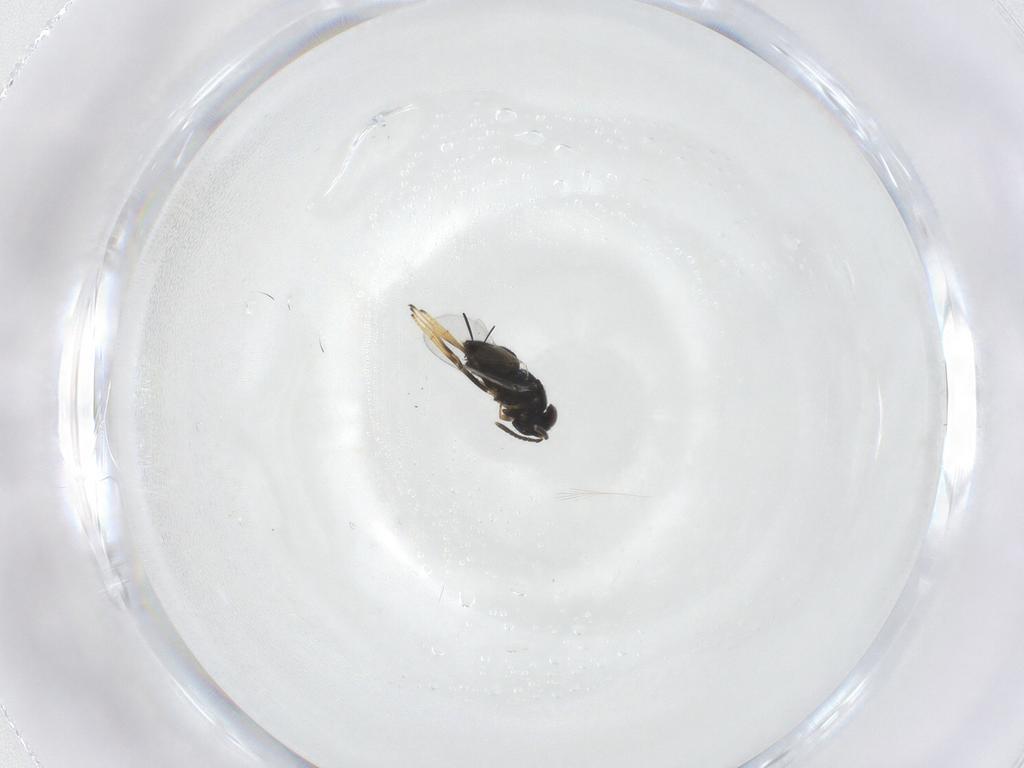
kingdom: Animalia
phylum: Arthropoda
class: Insecta
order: Hymenoptera
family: Encyrtidae
